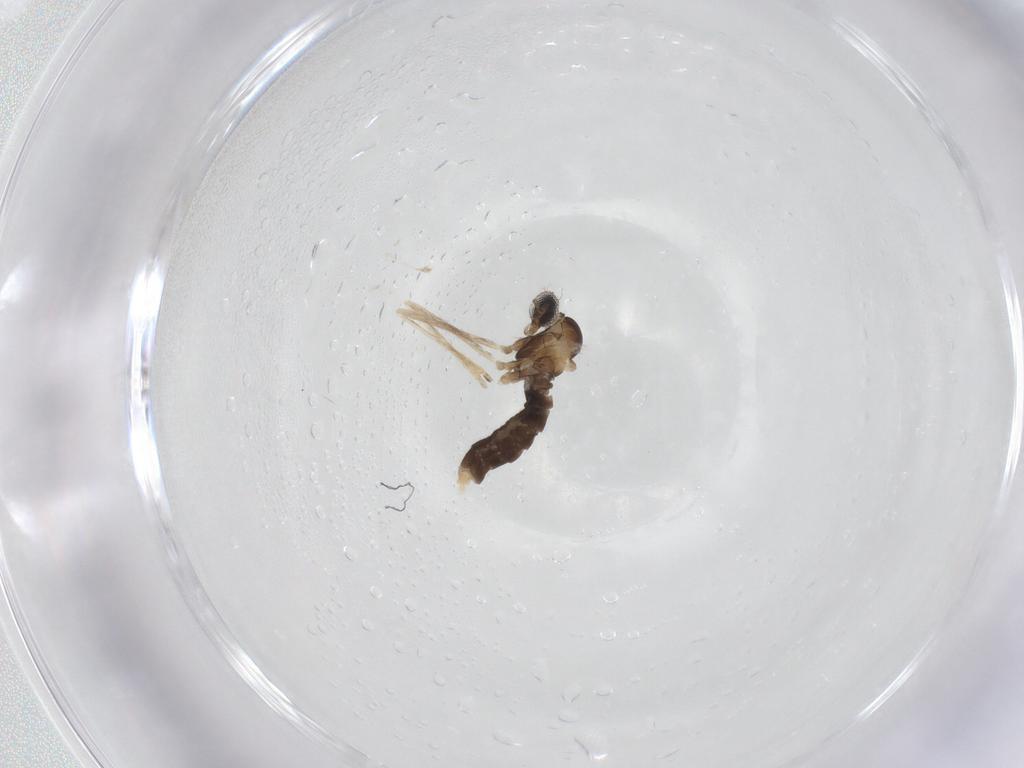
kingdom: Animalia
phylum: Arthropoda
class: Insecta
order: Diptera
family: Cecidomyiidae
